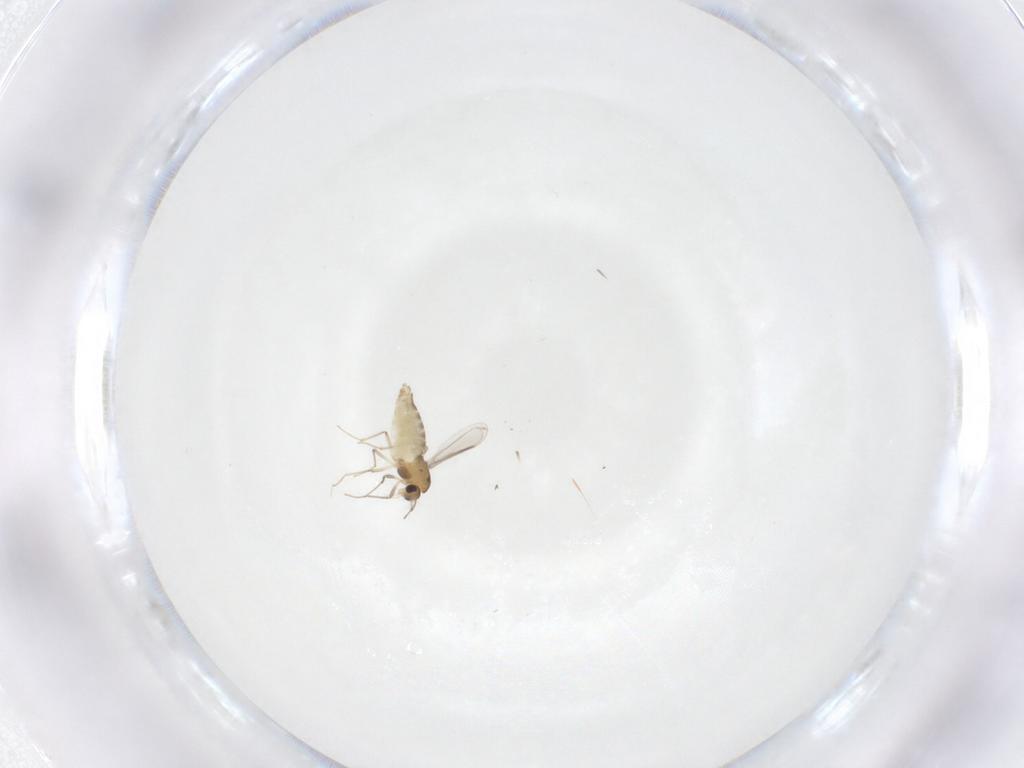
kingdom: Animalia
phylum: Arthropoda
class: Insecta
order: Diptera
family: Chironomidae
